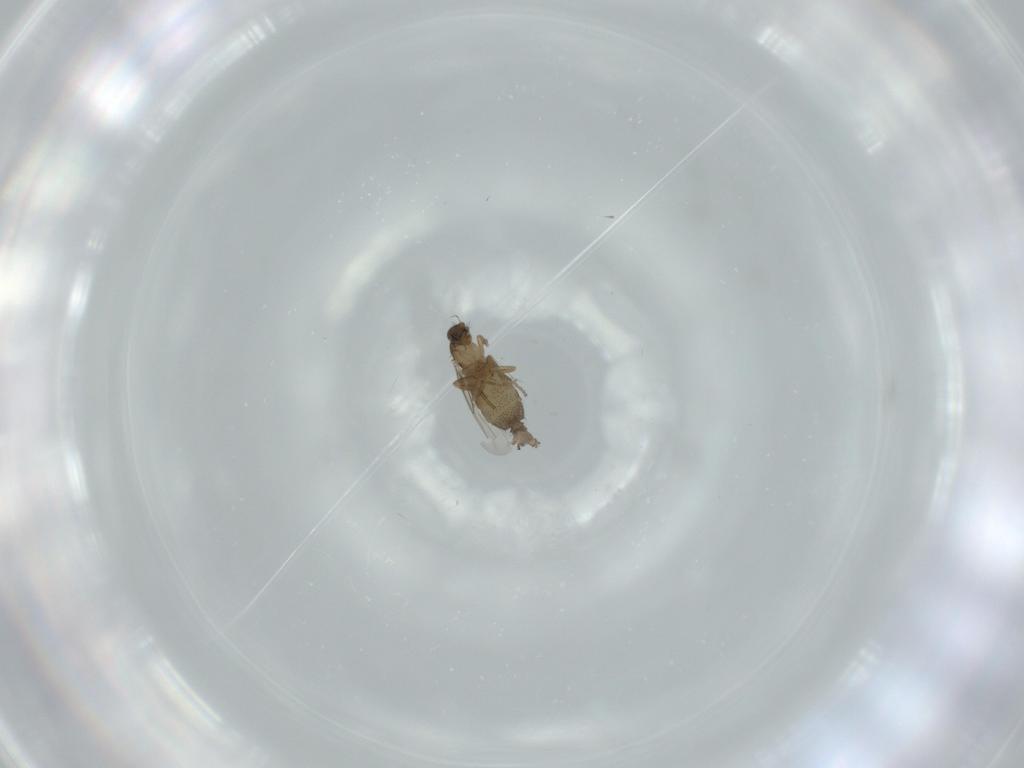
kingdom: Animalia
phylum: Arthropoda
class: Insecta
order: Diptera
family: Phoridae
